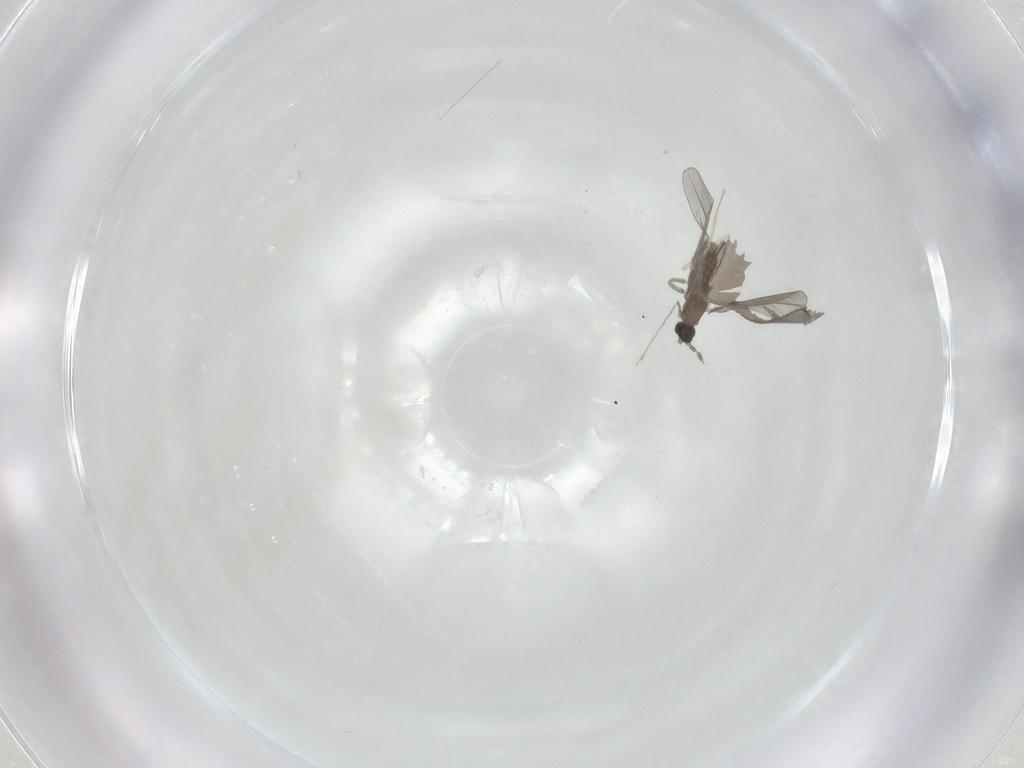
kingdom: Animalia
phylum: Arthropoda
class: Insecta
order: Diptera
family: Cecidomyiidae
